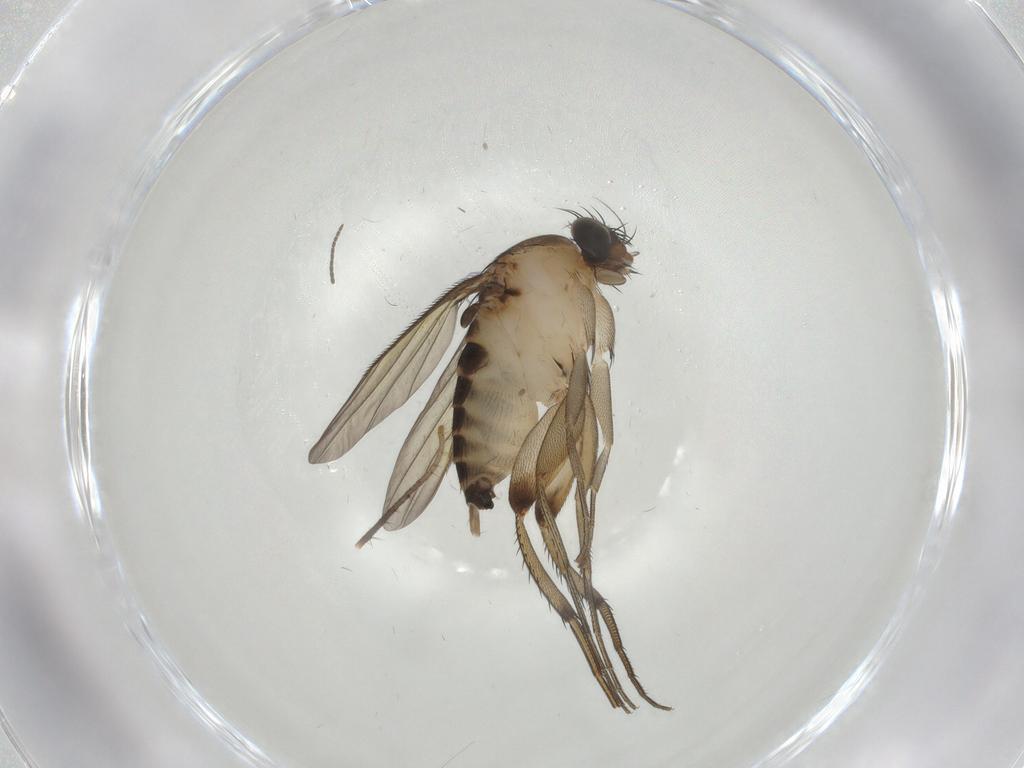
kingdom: Animalia
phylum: Arthropoda
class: Insecta
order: Diptera
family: Phoridae
